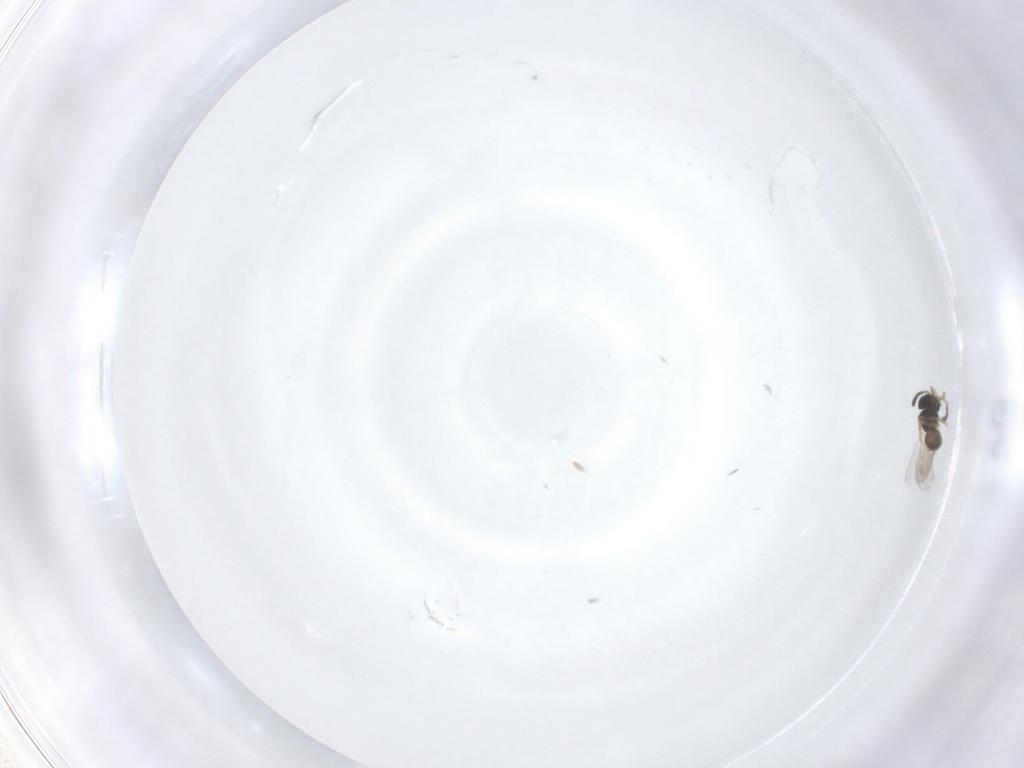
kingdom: Animalia
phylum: Arthropoda
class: Insecta
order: Hymenoptera
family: Scelionidae
